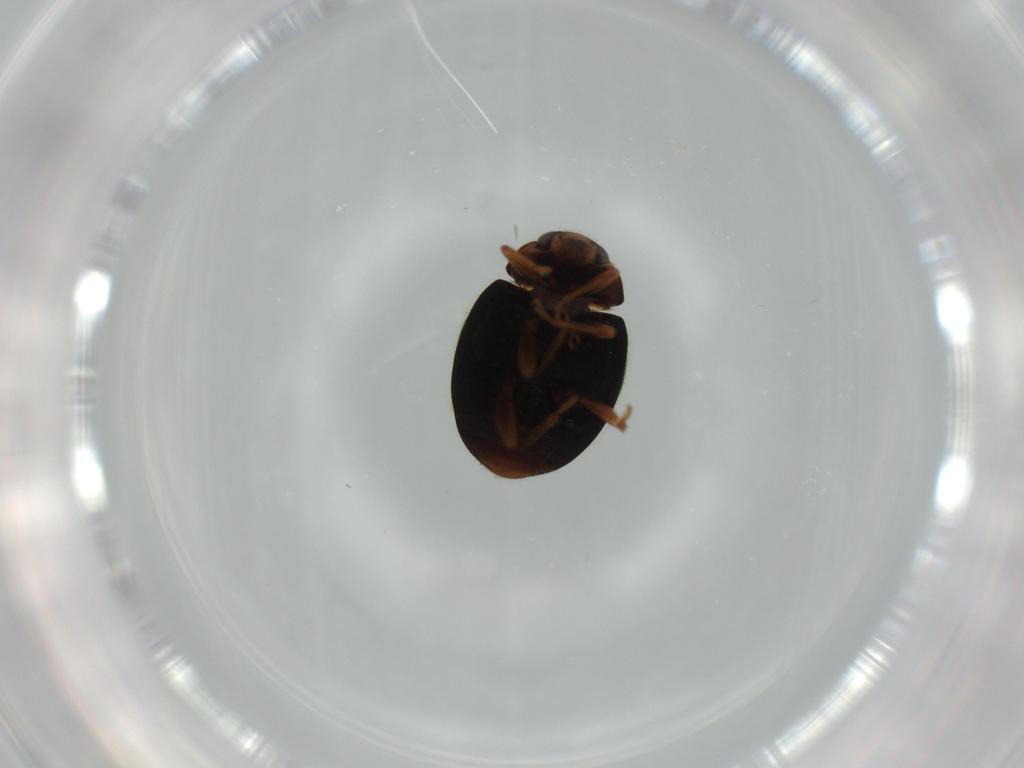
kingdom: Animalia
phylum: Arthropoda
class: Insecta
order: Coleoptera
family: Coccinellidae
